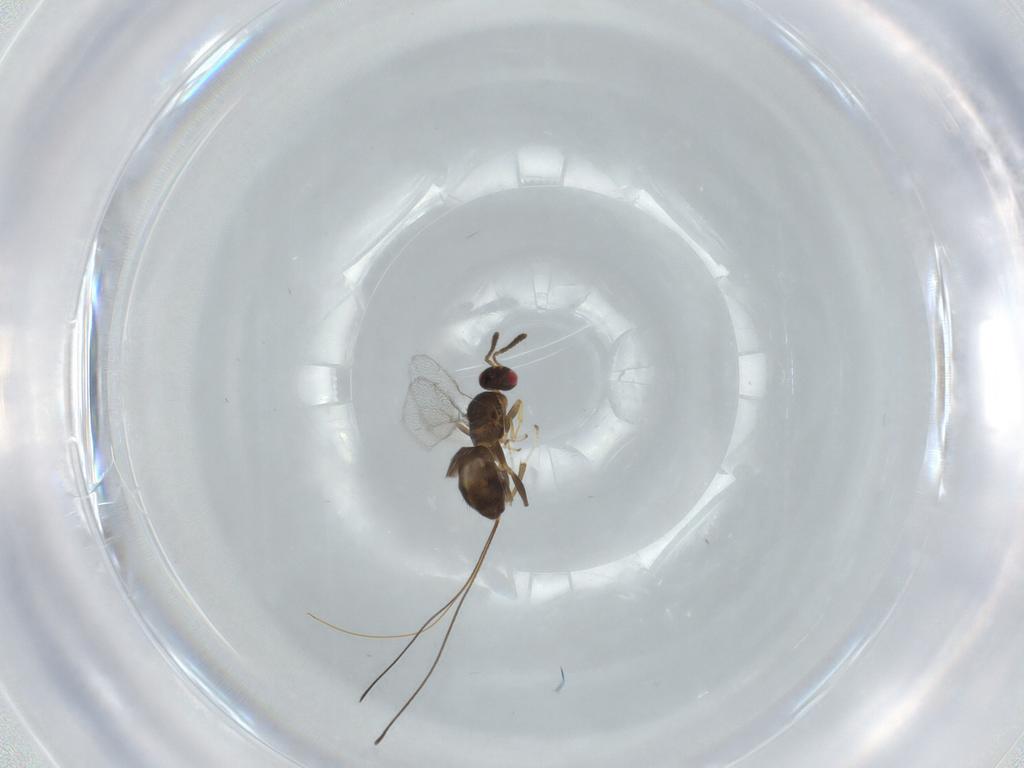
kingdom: Animalia
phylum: Arthropoda
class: Insecta
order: Hymenoptera
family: Torymidae
